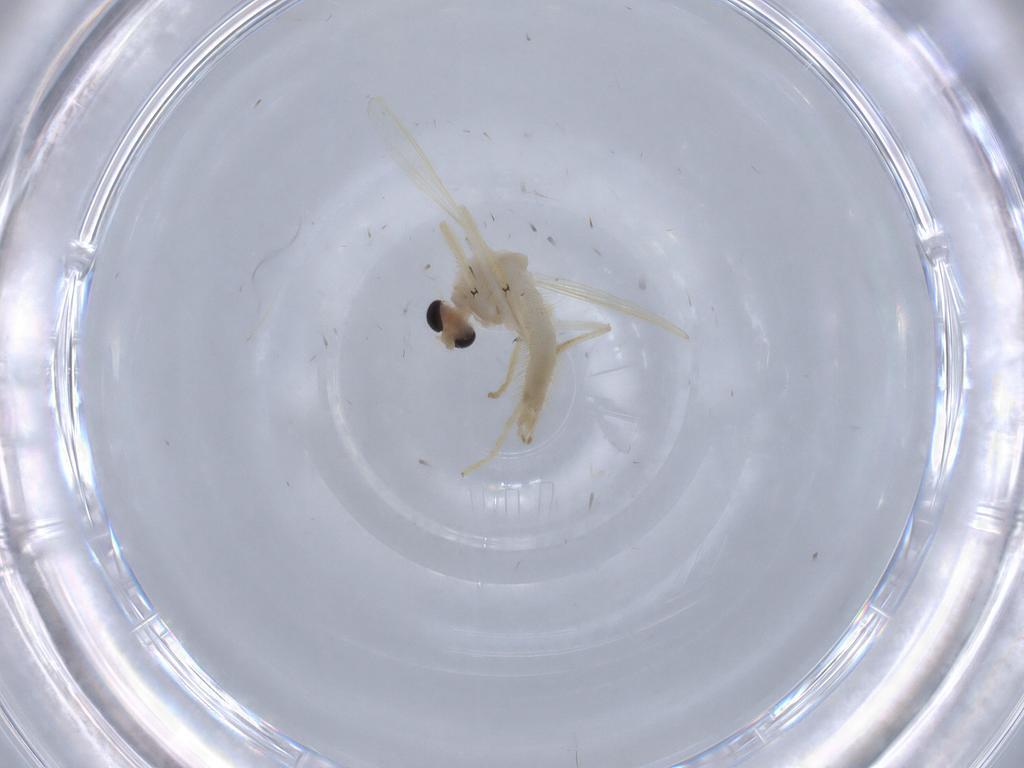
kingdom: Animalia
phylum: Arthropoda
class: Insecta
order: Diptera
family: Chironomidae
